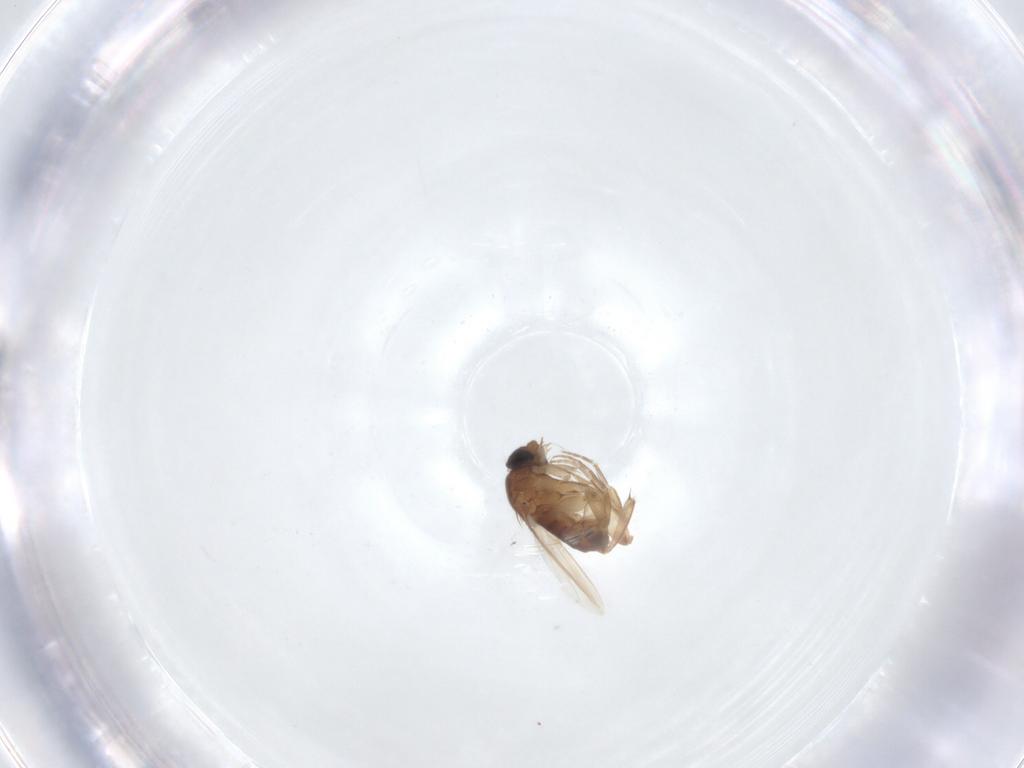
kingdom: Animalia
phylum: Arthropoda
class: Insecta
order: Diptera
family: Phoridae
